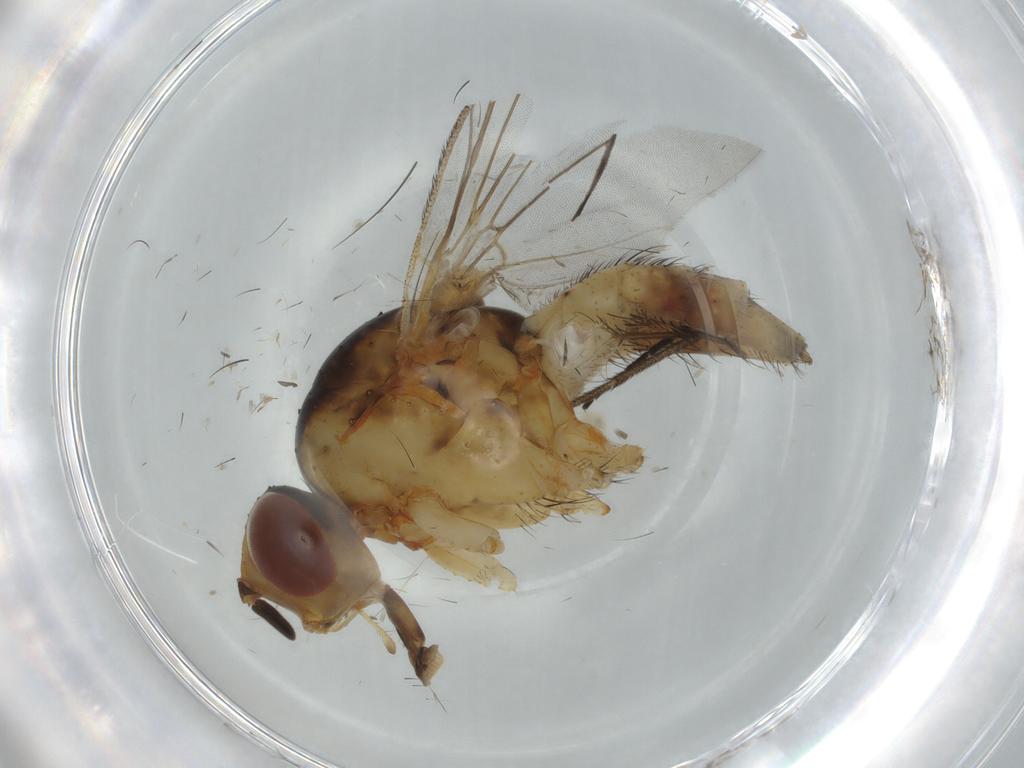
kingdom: Animalia
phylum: Arthropoda
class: Insecta
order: Diptera
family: Anthomyiidae
